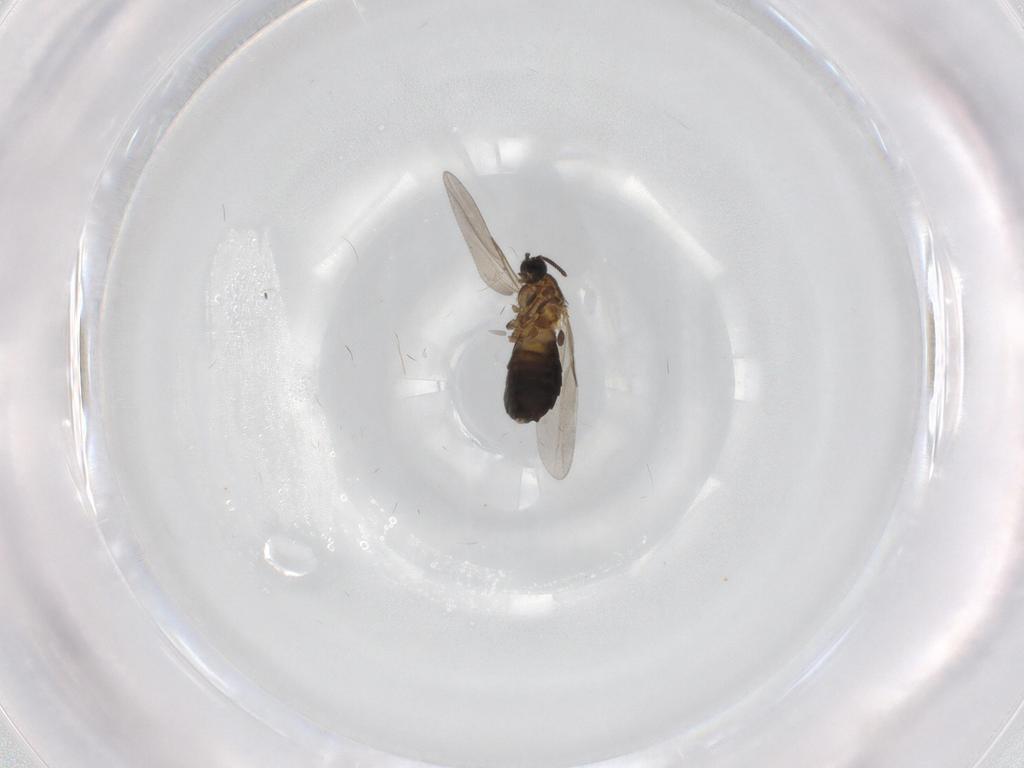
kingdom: Animalia
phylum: Arthropoda
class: Insecta
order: Diptera
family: Scatopsidae
